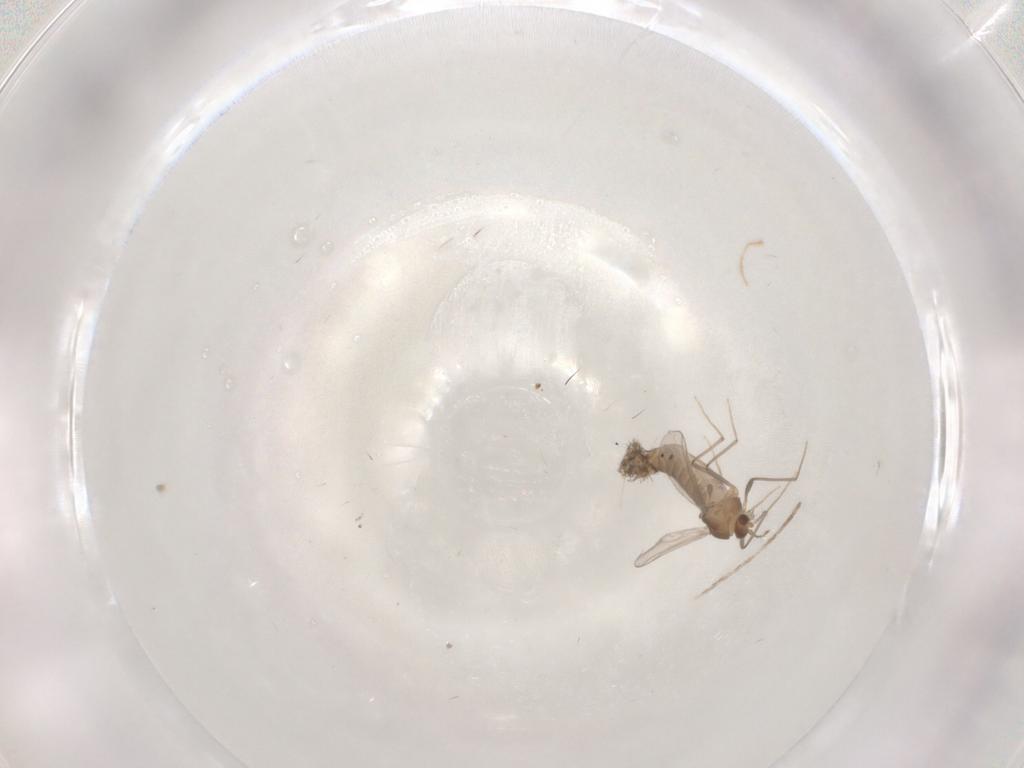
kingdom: Animalia
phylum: Arthropoda
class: Insecta
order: Diptera
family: Chironomidae
